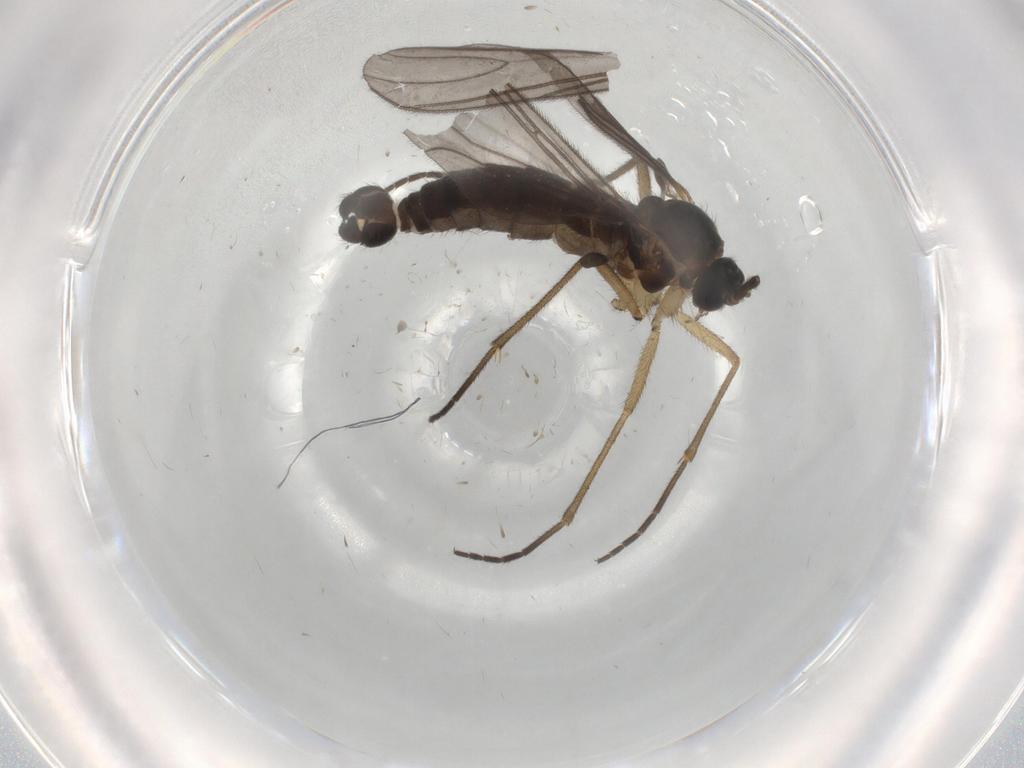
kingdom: Animalia
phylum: Arthropoda
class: Insecta
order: Diptera
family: Sciaridae
